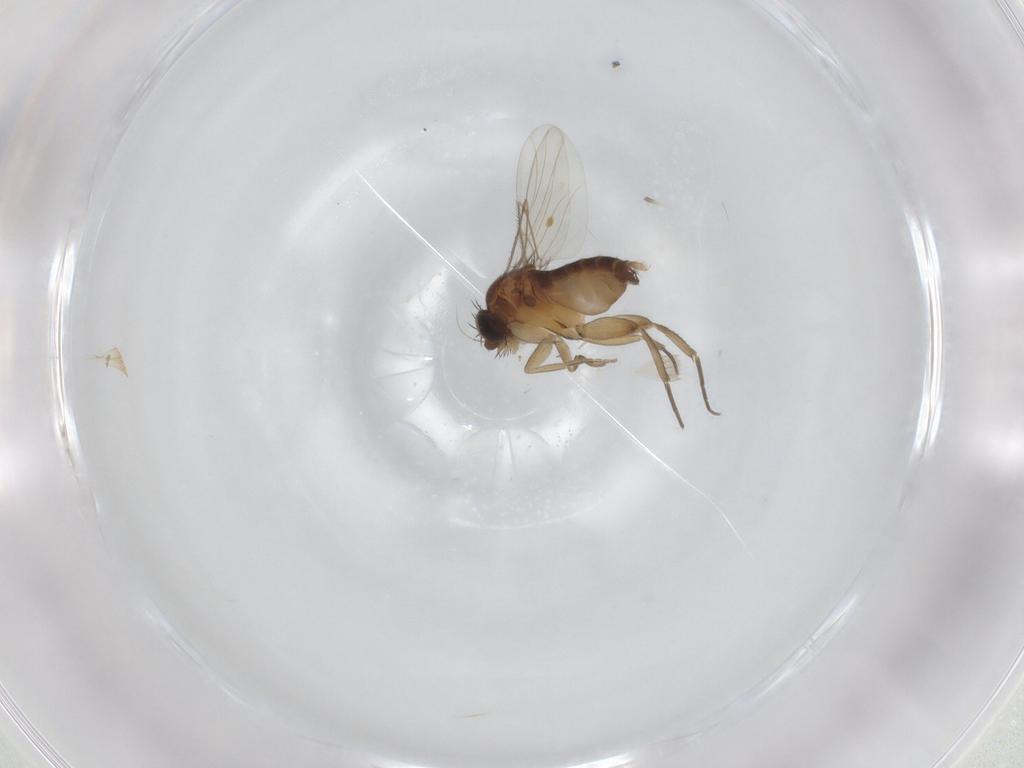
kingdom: Animalia
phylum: Arthropoda
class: Insecta
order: Diptera
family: Phoridae
